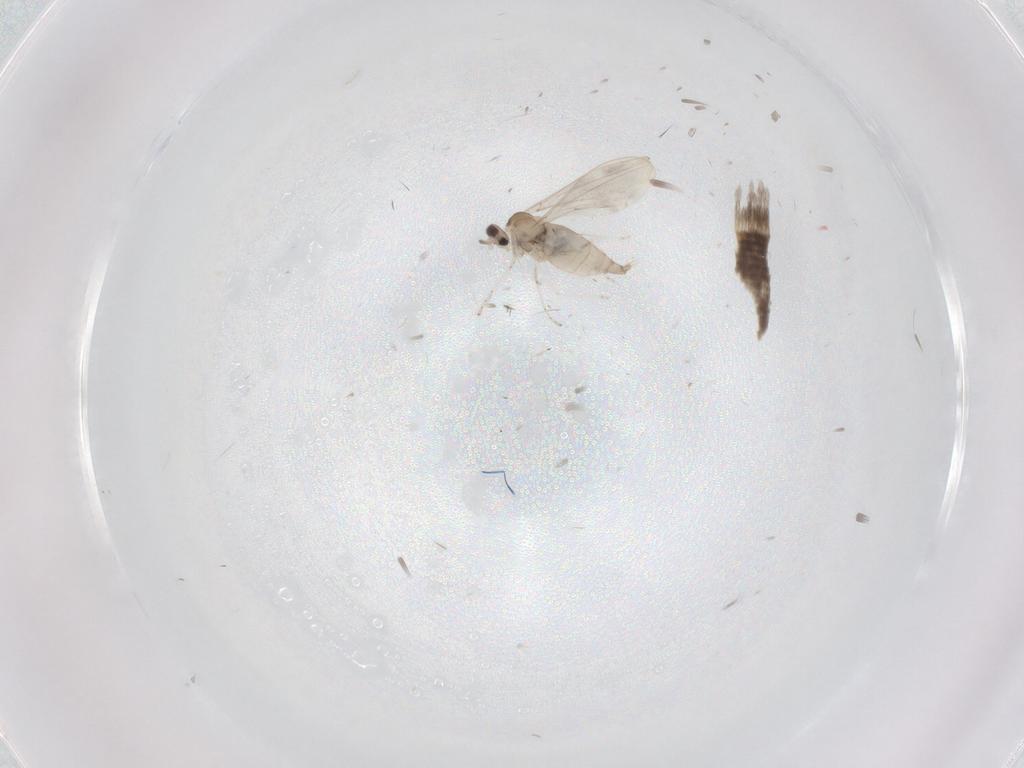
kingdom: Animalia
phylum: Arthropoda
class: Insecta
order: Diptera
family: Cecidomyiidae
